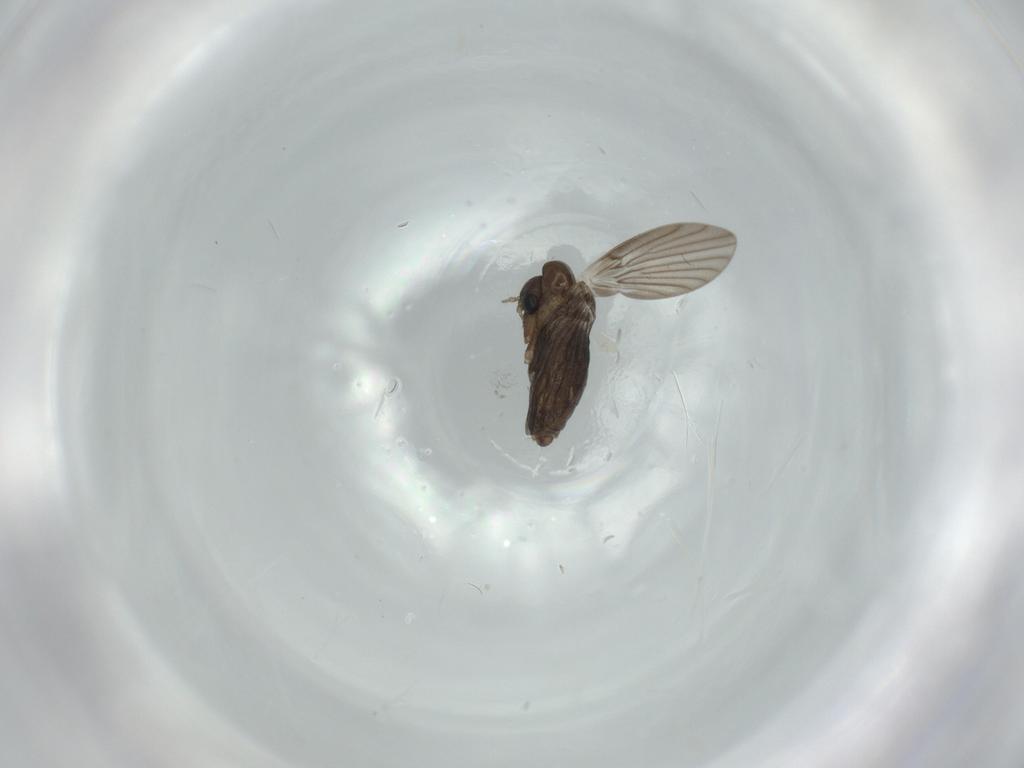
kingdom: Animalia
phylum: Arthropoda
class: Insecta
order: Diptera
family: Psychodidae
